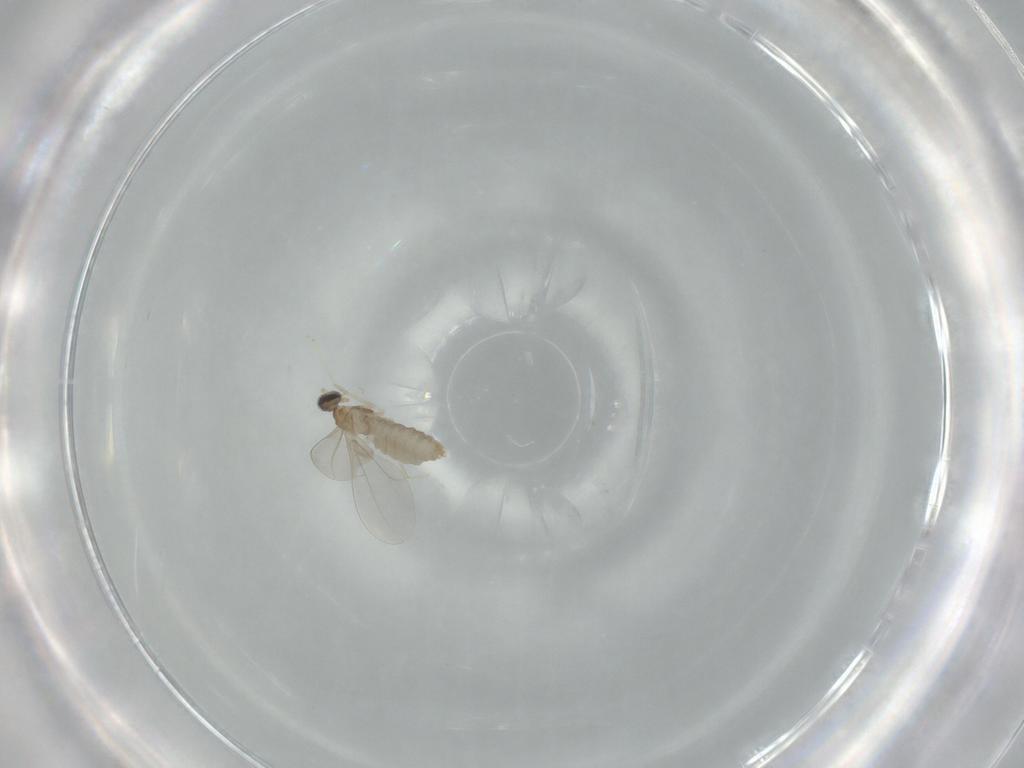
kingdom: Animalia
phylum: Arthropoda
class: Insecta
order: Diptera
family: Cecidomyiidae
